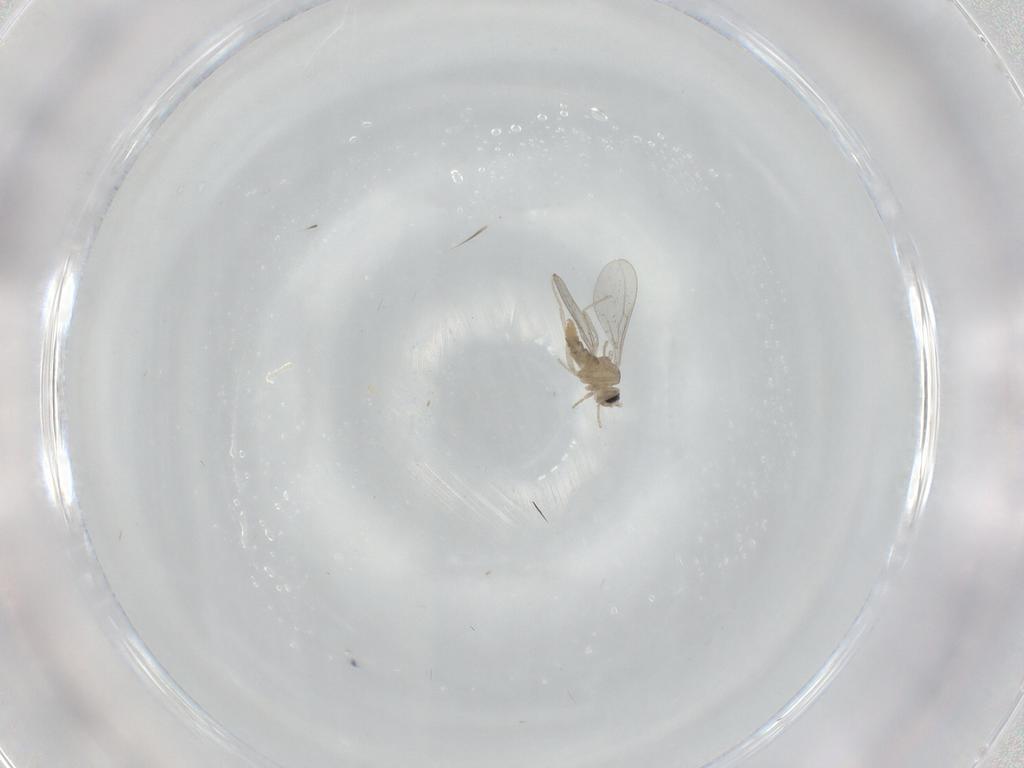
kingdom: Animalia
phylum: Arthropoda
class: Insecta
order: Diptera
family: Cecidomyiidae
